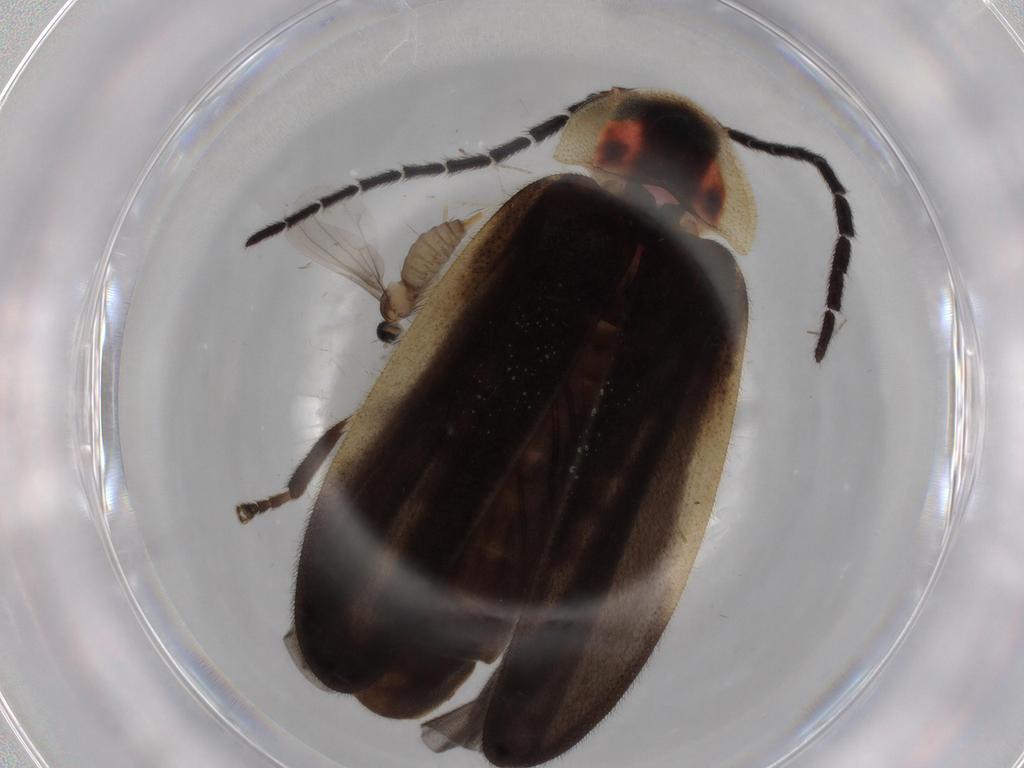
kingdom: Animalia
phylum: Arthropoda
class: Insecta
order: Diptera
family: Ceratopogonidae
